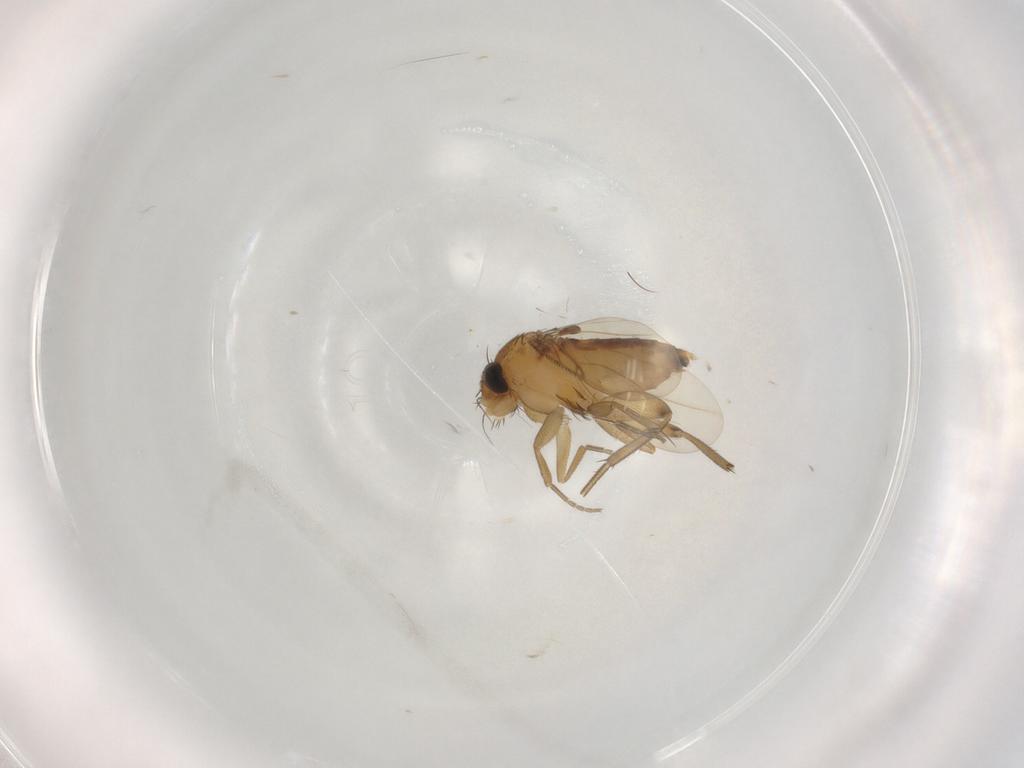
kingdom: Animalia
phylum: Arthropoda
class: Insecta
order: Diptera
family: Phoridae
